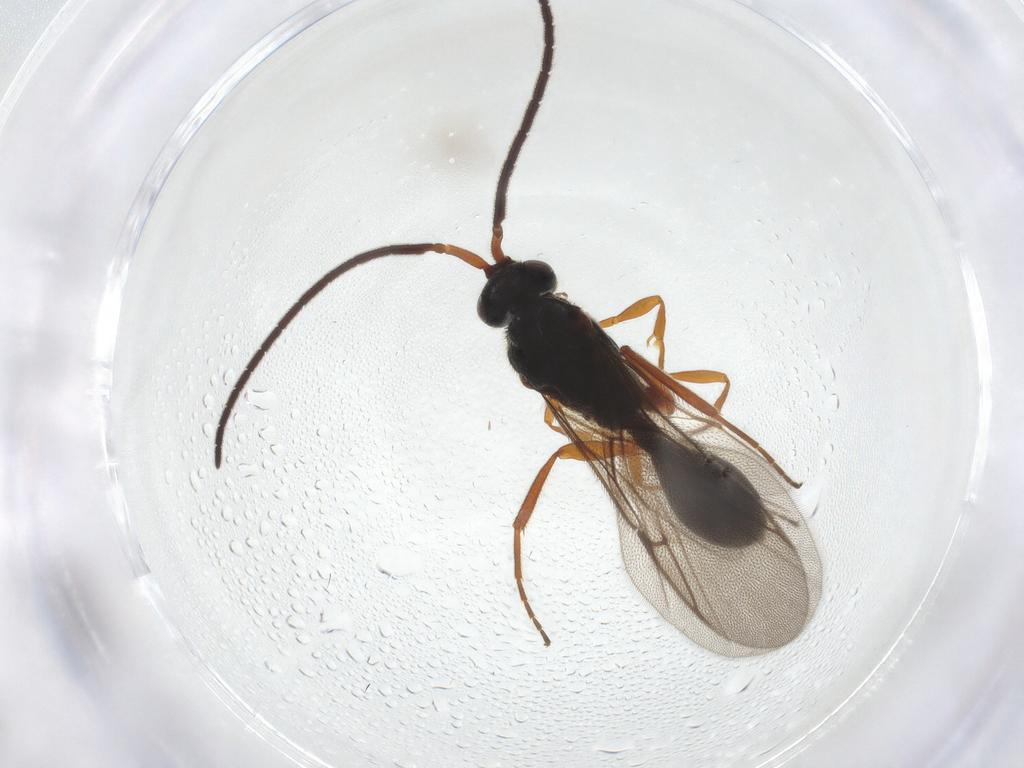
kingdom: Animalia
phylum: Arthropoda
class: Insecta
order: Hymenoptera
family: Diapriidae
